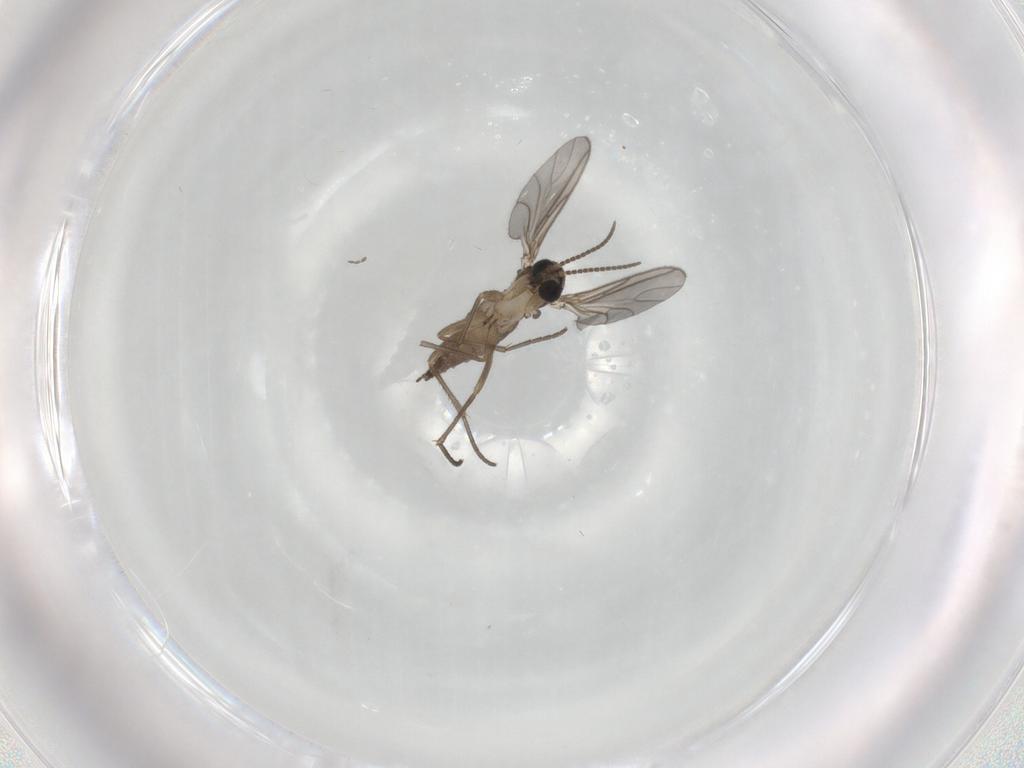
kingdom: Animalia
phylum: Arthropoda
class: Insecta
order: Diptera
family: Sciaridae
